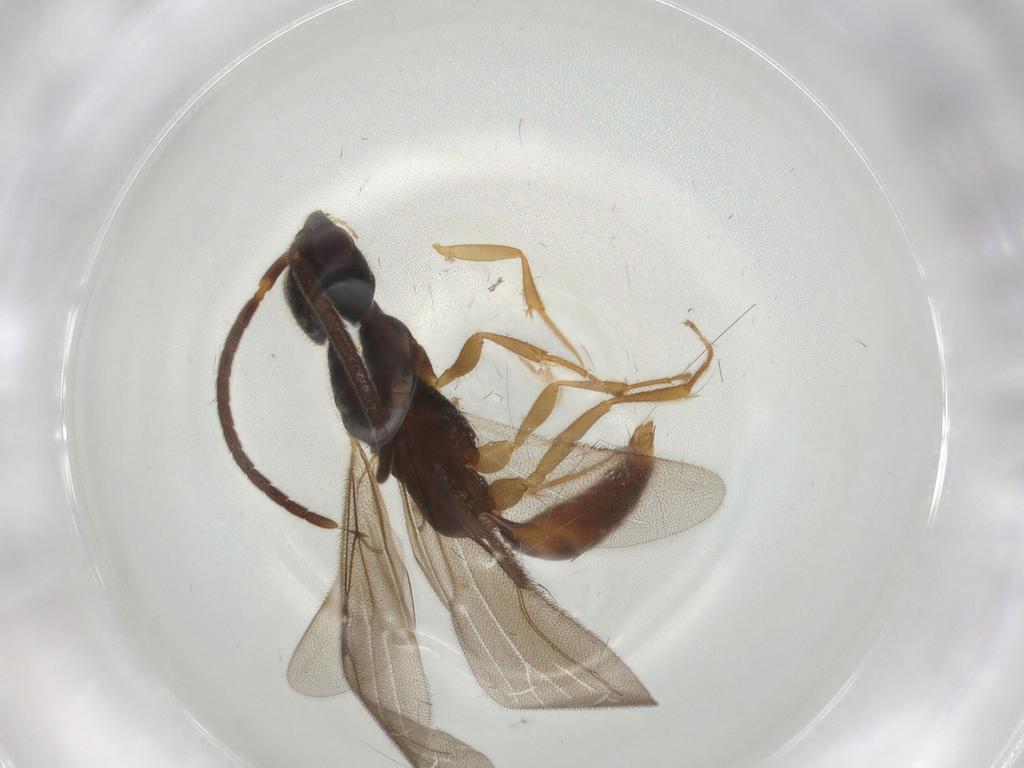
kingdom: Animalia
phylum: Arthropoda
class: Insecta
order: Hymenoptera
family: Bethylidae
